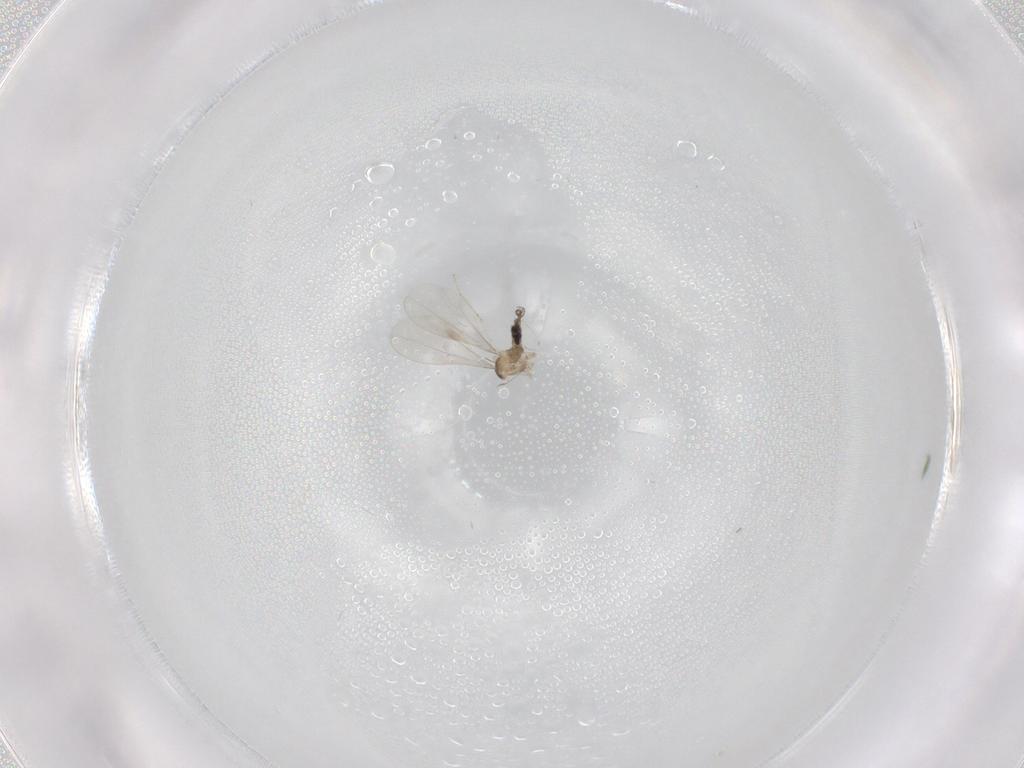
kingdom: Animalia
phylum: Arthropoda
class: Insecta
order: Diptera
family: Cecidomyiidae
